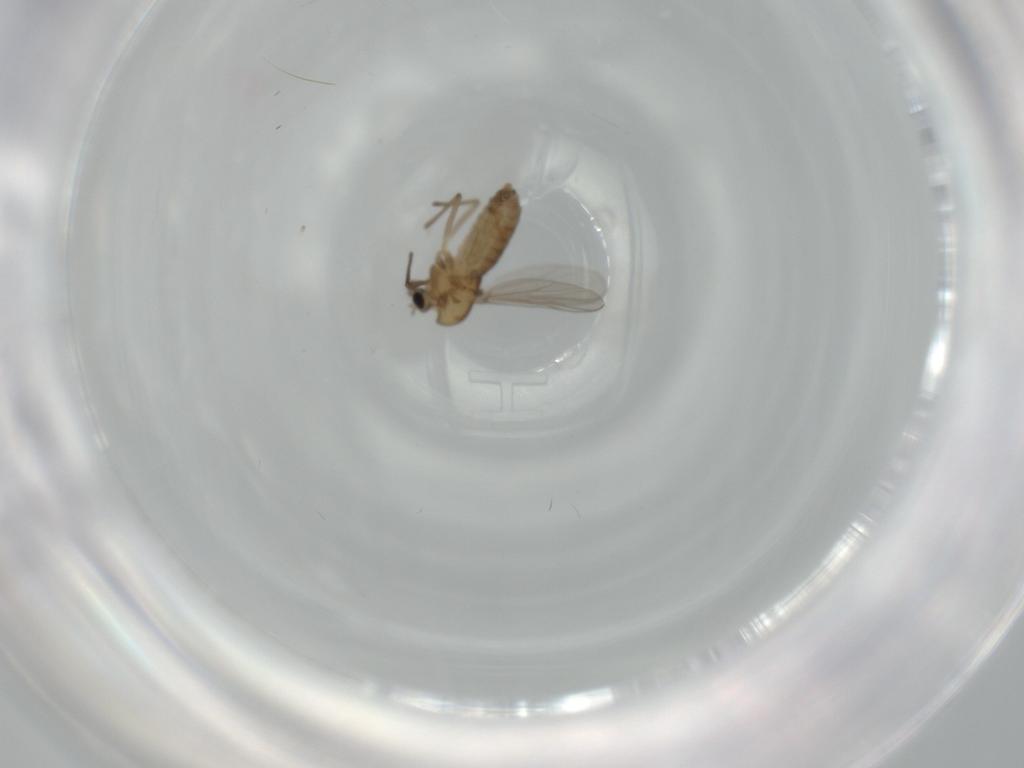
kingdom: Animalia
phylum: Arthropoda
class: Insecta
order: Diptera
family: Chironomidae
